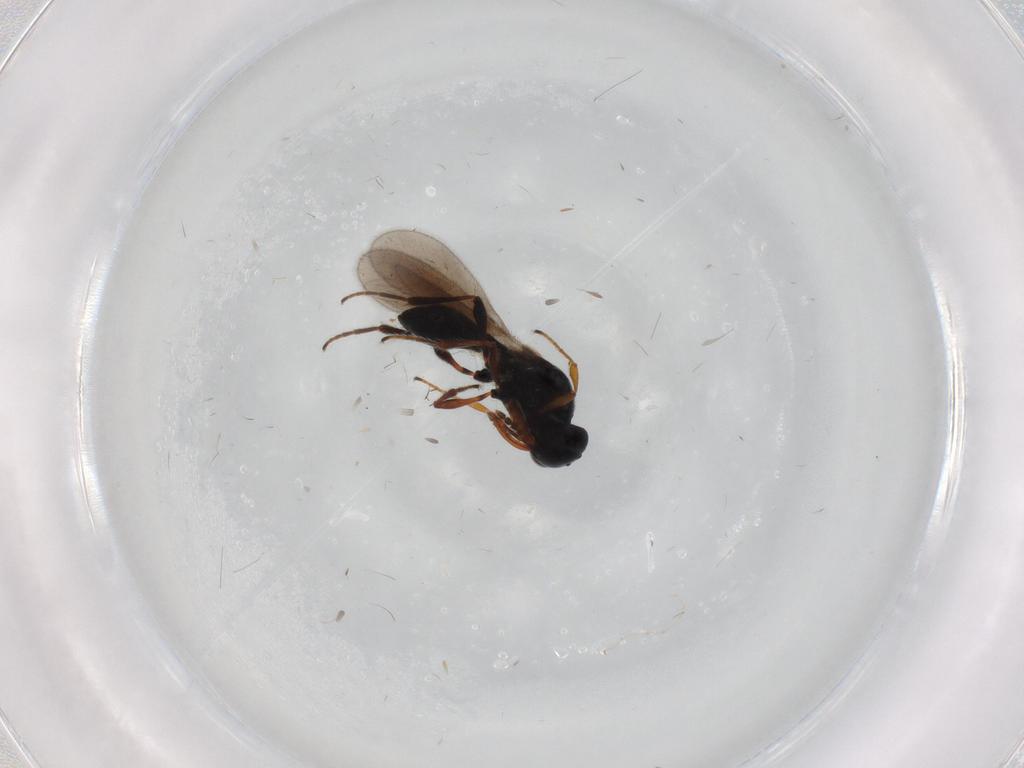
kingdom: Animalia
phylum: Arthropoda
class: Insecta
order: Hymenoptera
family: Platygastridae
